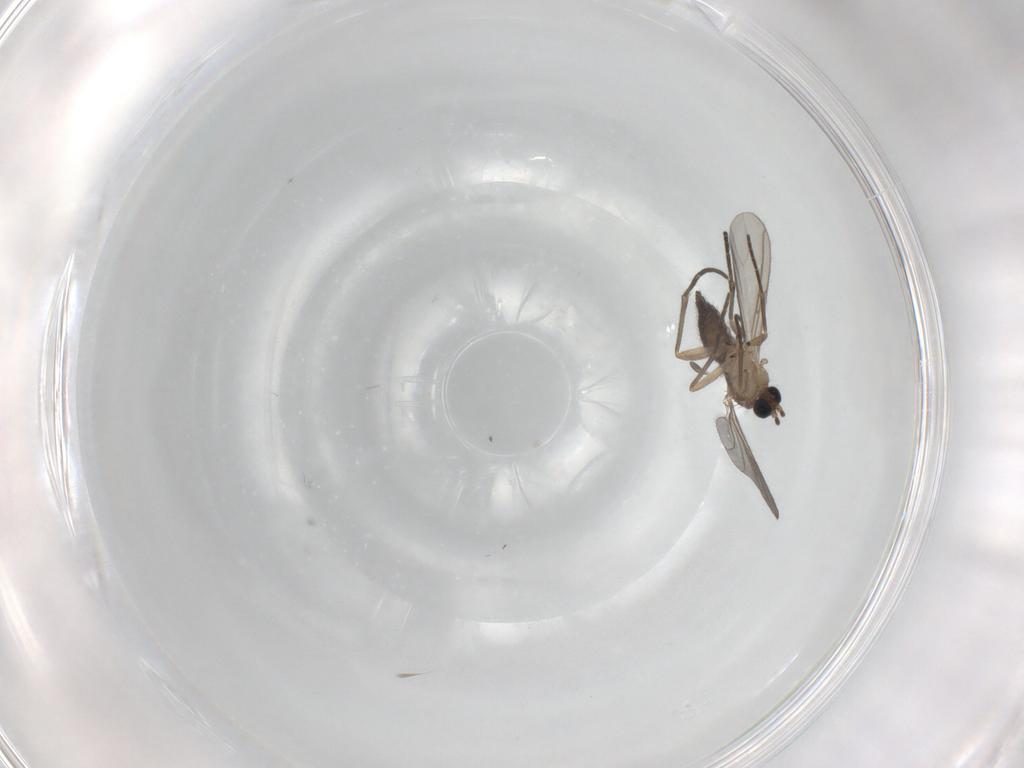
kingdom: Animalia
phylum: Arthropoda
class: Insecta
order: Diptera
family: Sciaridae
